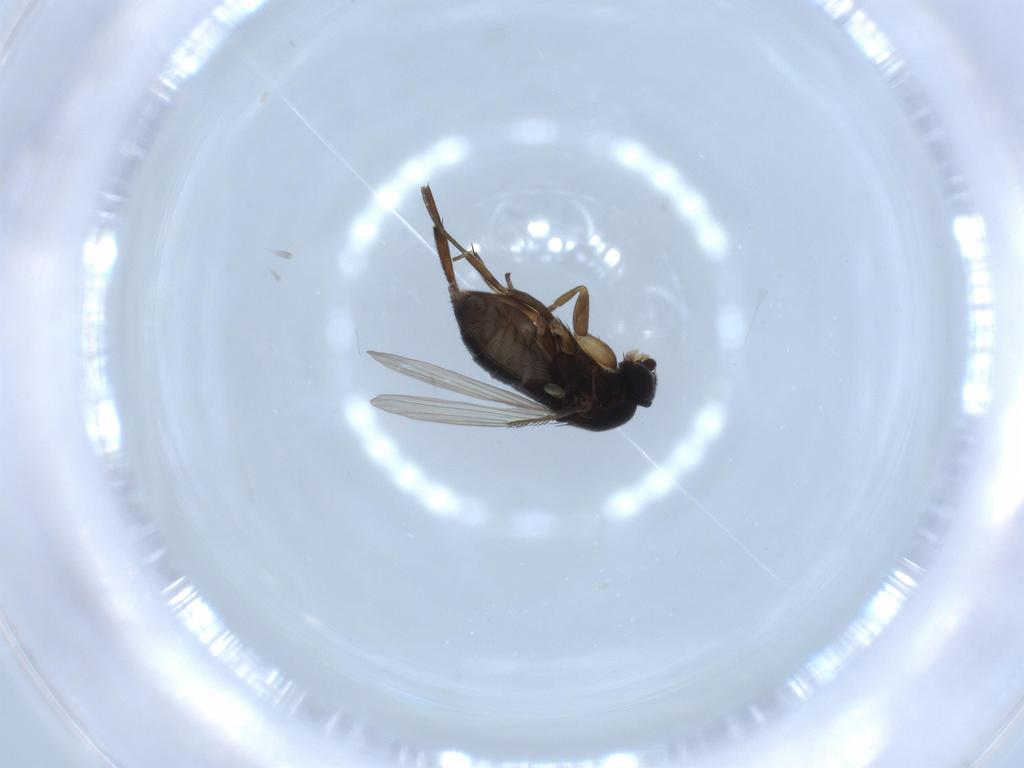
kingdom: Animalia
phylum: Arthropoda
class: Insecta
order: Diptera
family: Phoridae
